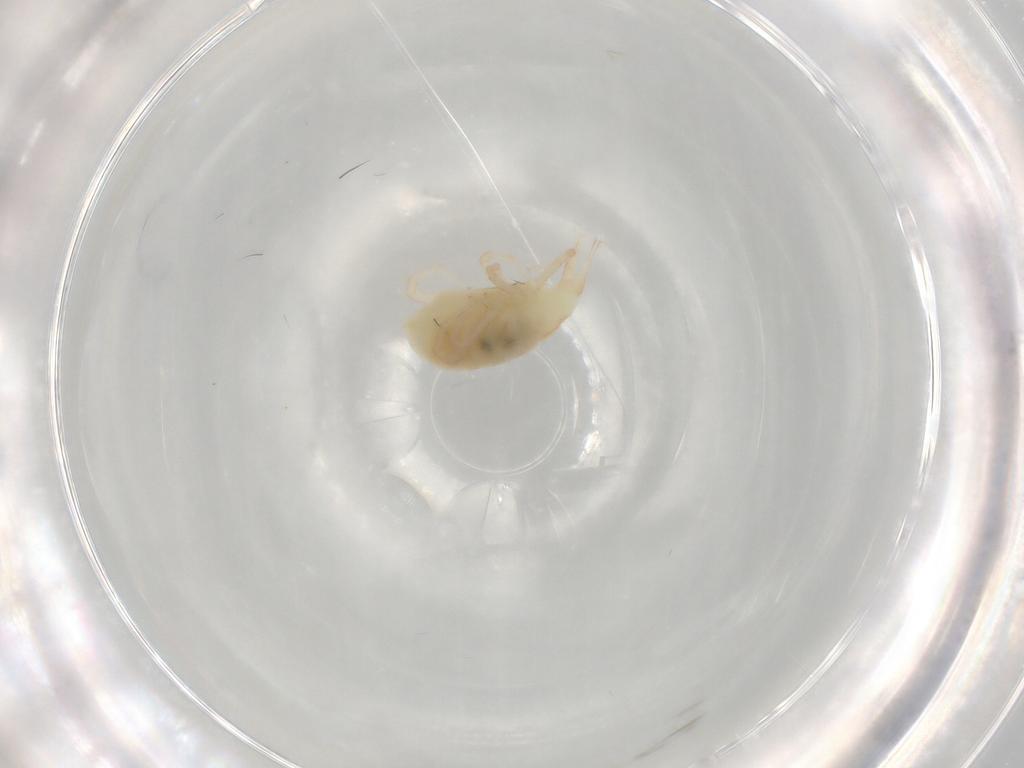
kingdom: Animalia
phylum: Arthropoda
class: Arachnida
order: Trombidiformes
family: Bdellidae
